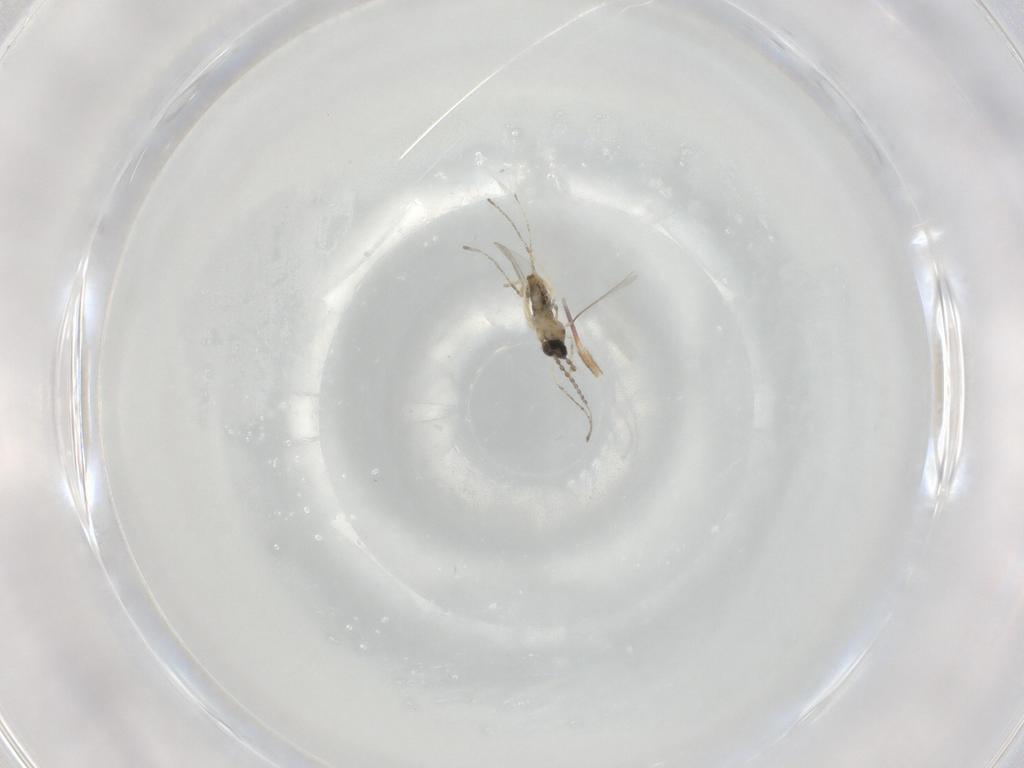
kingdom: Animalia
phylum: Arthropoda
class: Insecta
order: Diptera
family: Cecidomyiidae
